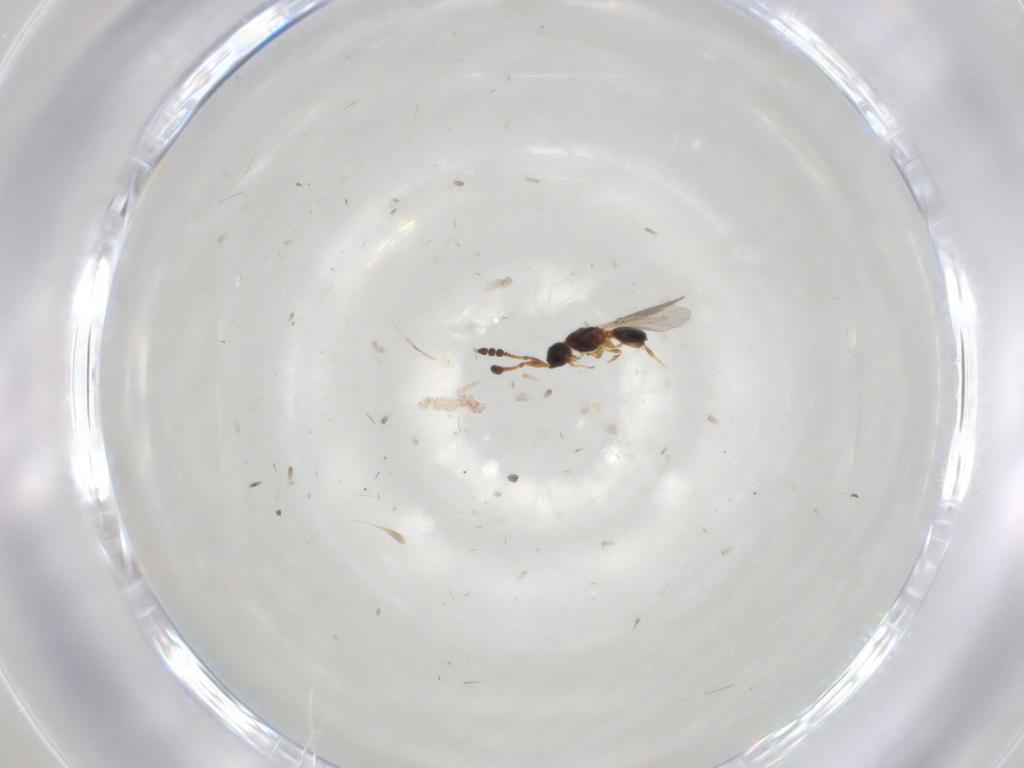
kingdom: Animalia
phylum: Arthropoda
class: Insecta
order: Hymenoptera
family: Diapriidae
